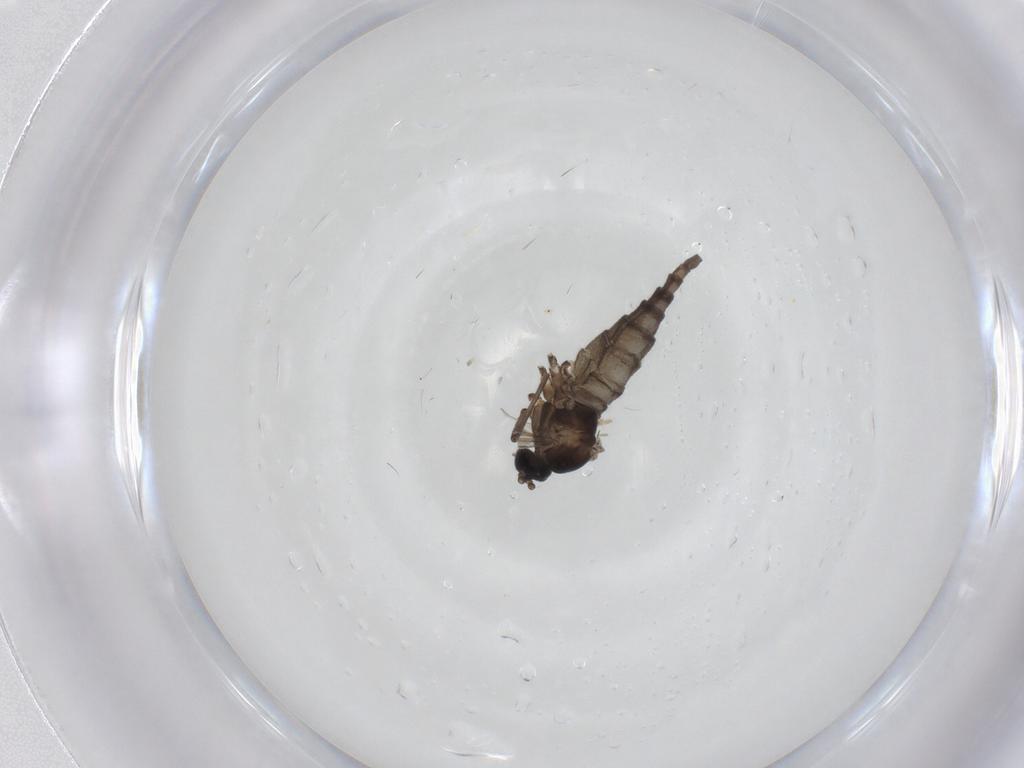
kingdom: Animalia
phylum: Arthropoda
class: Insecta
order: Diptera
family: Sciaridae
